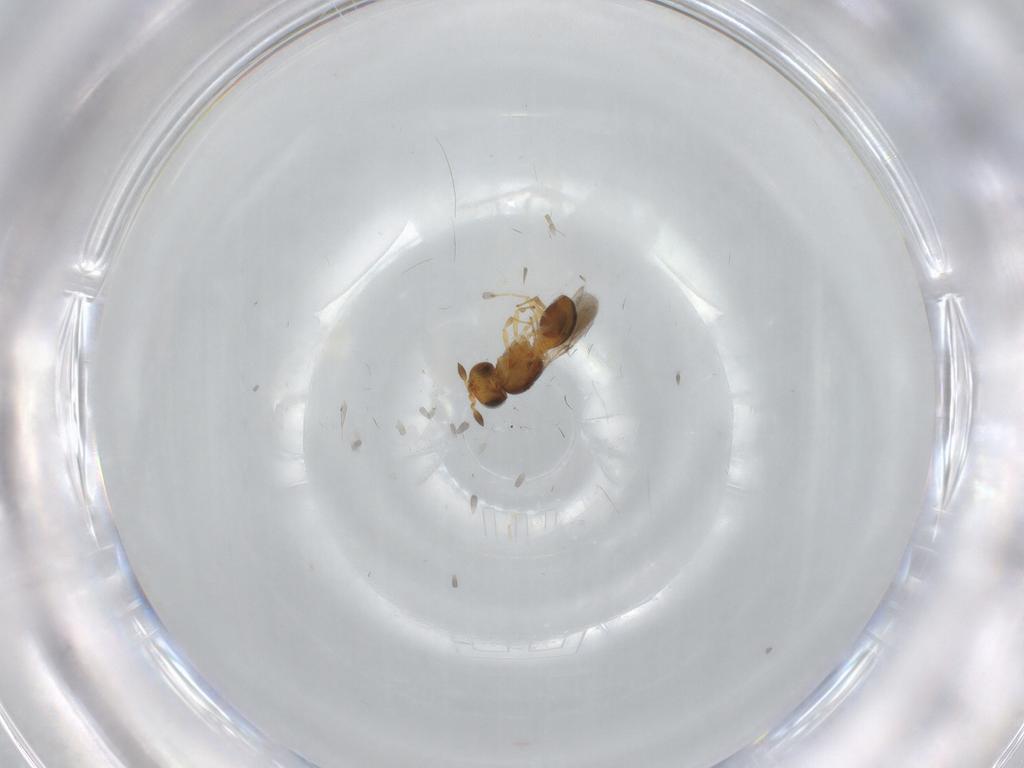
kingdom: Animalia
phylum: Arthropoda
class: Insecta
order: Hymenoptera
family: Scelionidae
